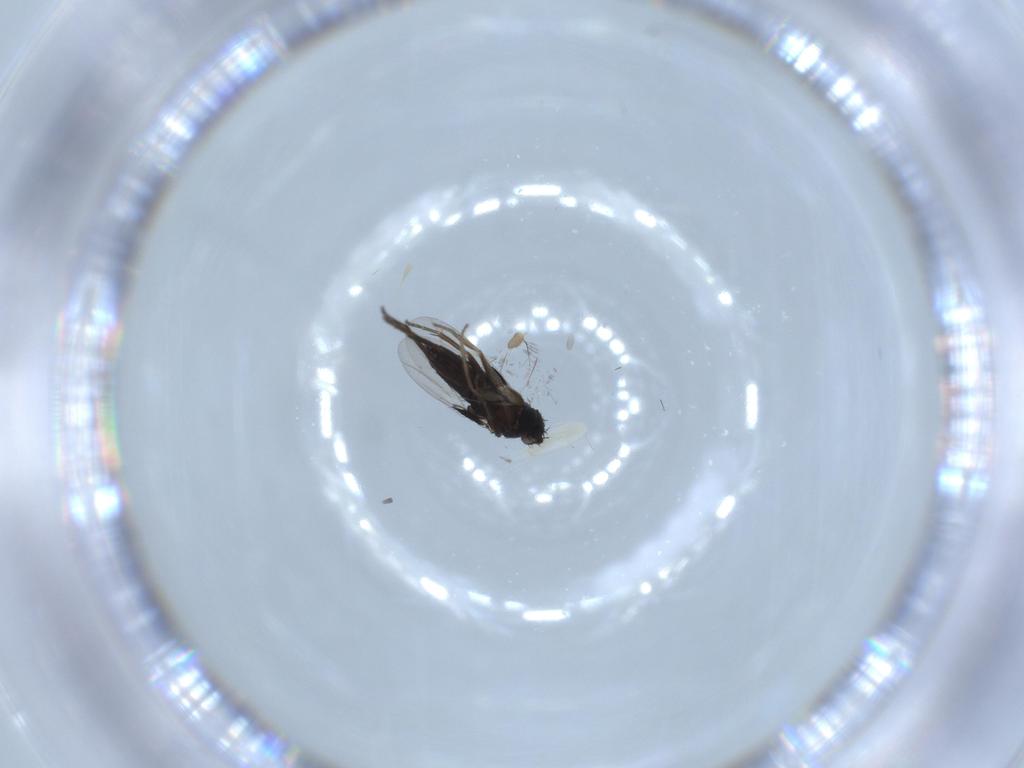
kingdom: Animalia
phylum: Arthropoda
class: Insecta
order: Diptera
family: Drosophilidae
